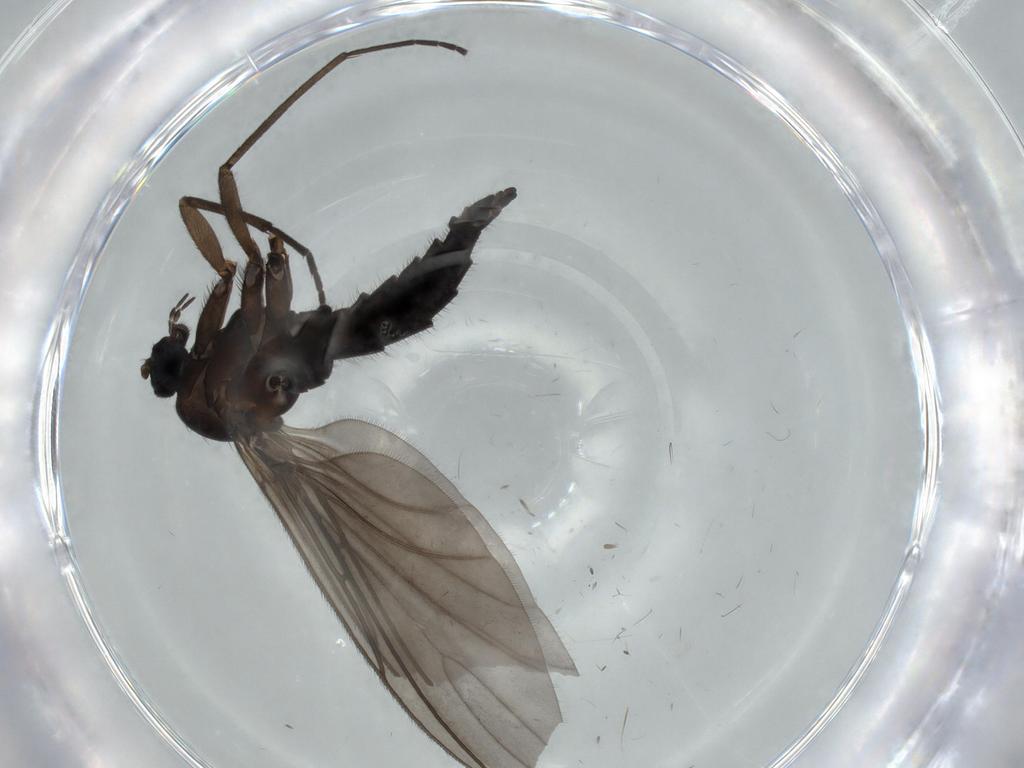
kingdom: Animalia
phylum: Arthropoda
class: Insecta
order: Diptera
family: Sciaridae
